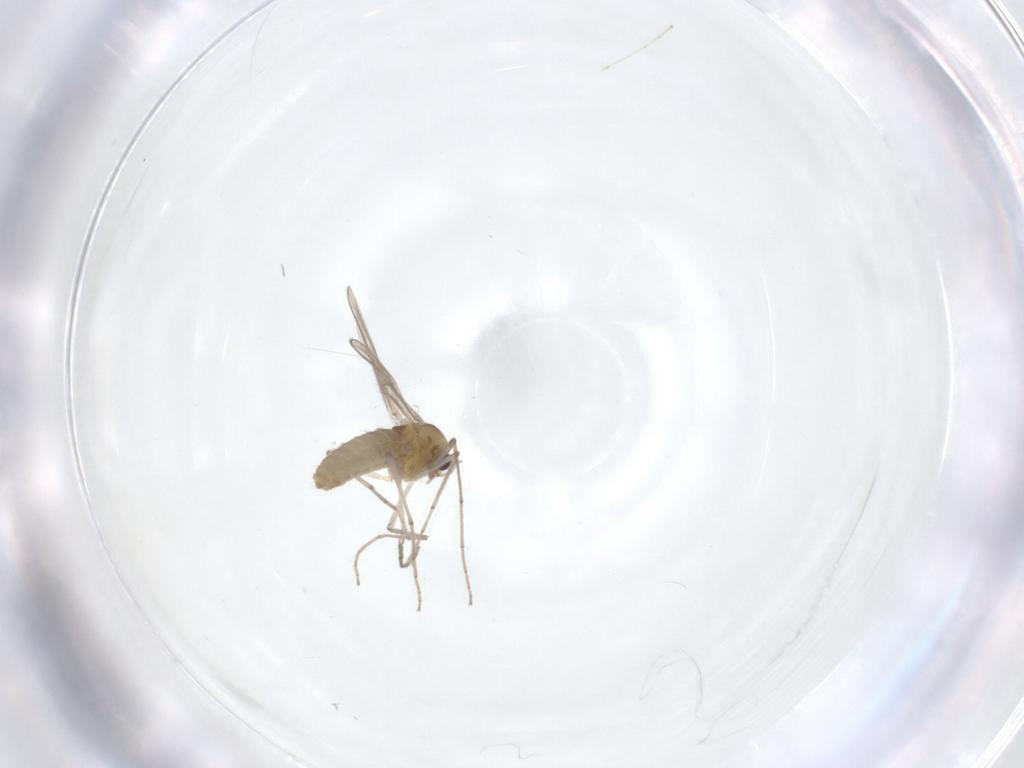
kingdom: Animalia
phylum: Arthropoda
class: Insecta
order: Diptera
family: Chironomidae
